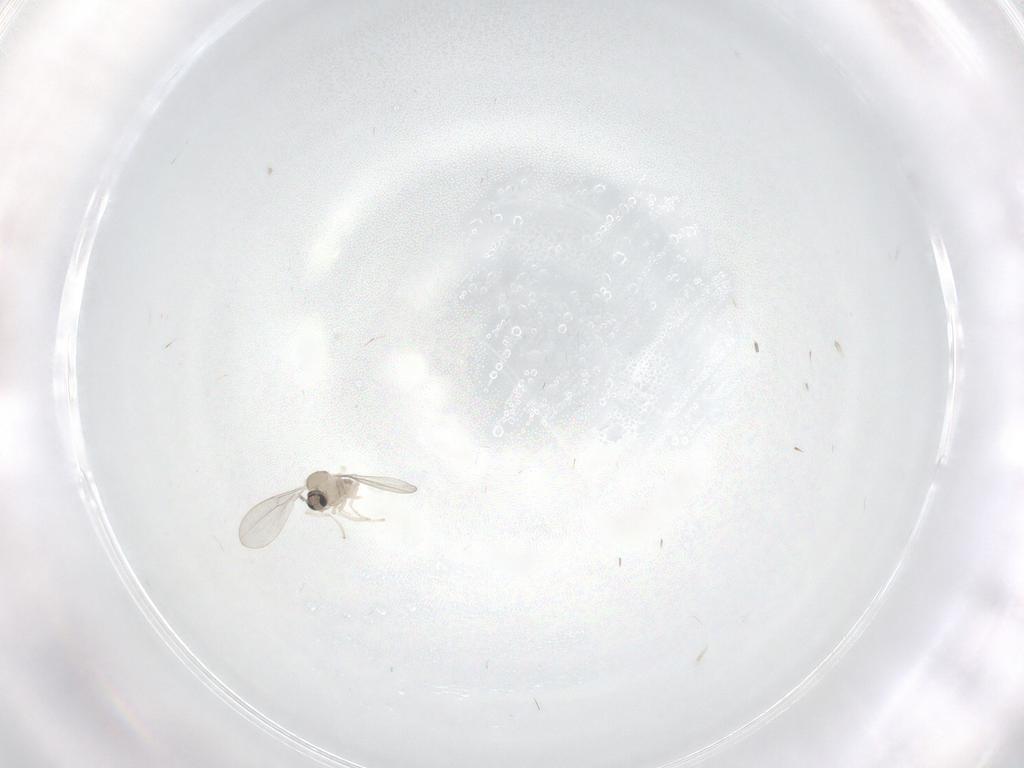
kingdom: Animalia
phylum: Arthropoda
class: Insecta
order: Diptera
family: Cecidomyiidae
